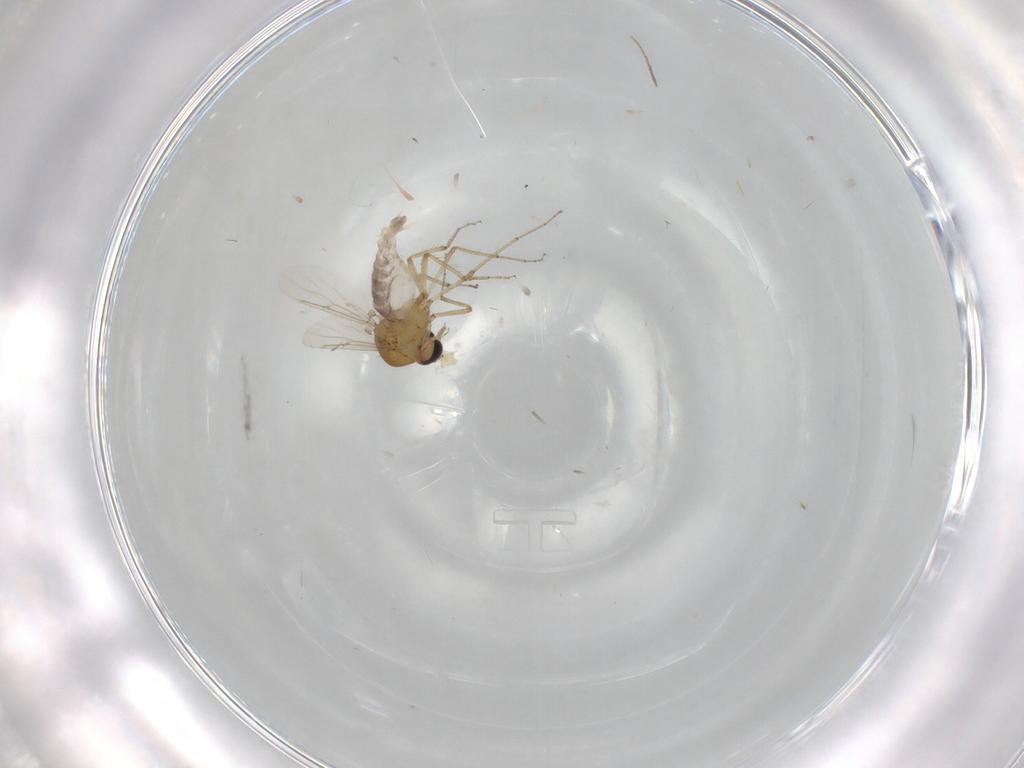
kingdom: Animalia
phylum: Arthropoda
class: Insecta
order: Diptera
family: Cecidomyiidae
